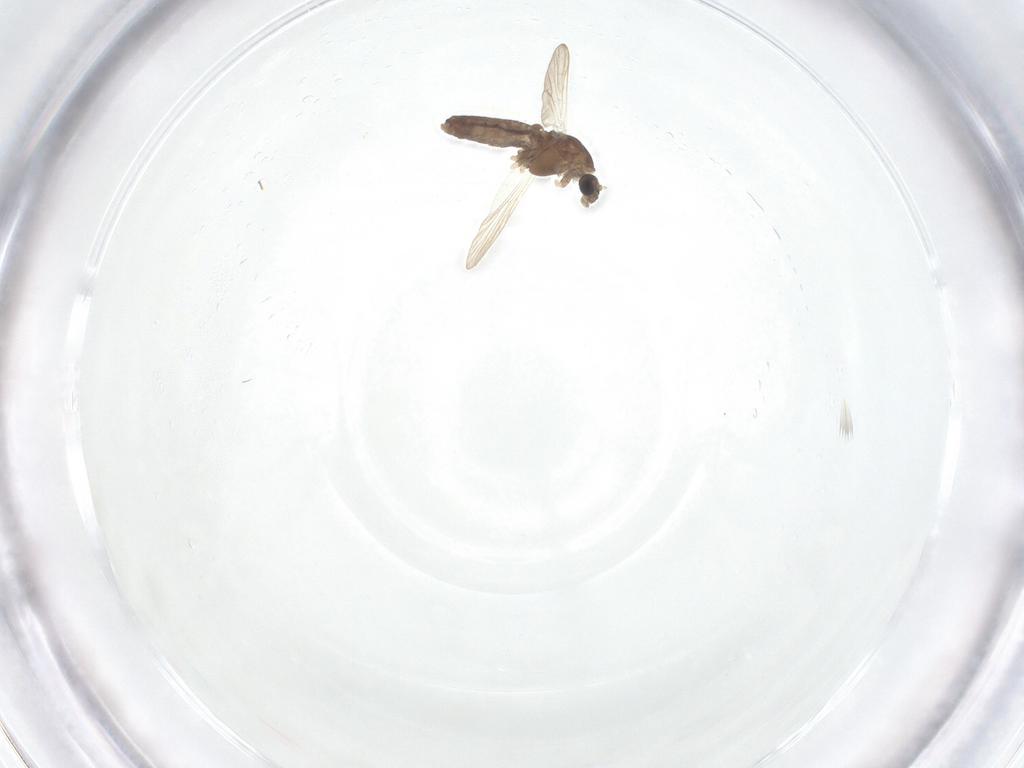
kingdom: Animalia
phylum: Arthropoda
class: Insecta
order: Diptera
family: Chironomidae
